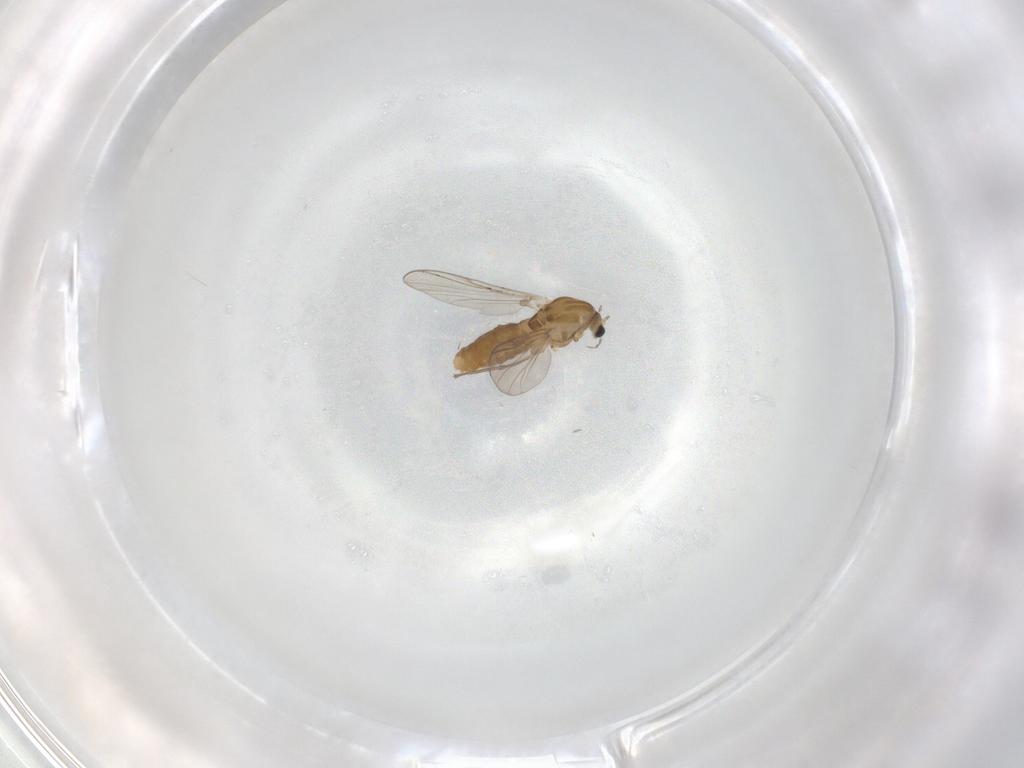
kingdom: Animalia
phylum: Arthropoda
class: Insecta
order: Diptera
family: Chironomidae
